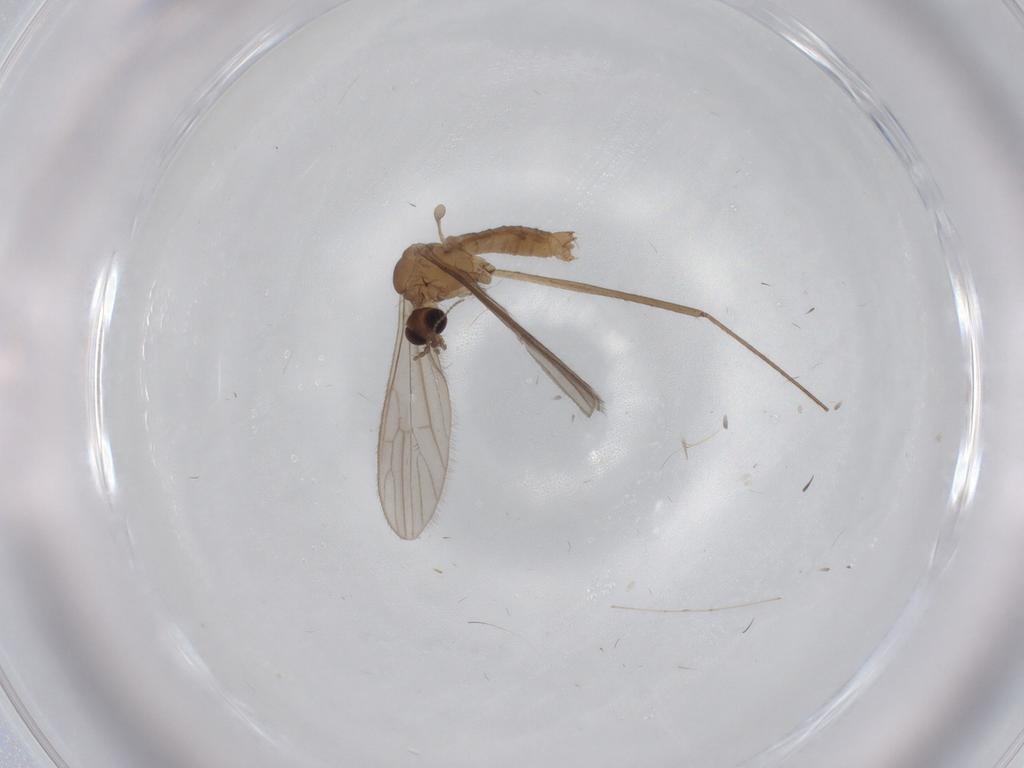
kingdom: Animalia
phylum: Arthropoda
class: Insecta
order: Diptera
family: Limoniidae
